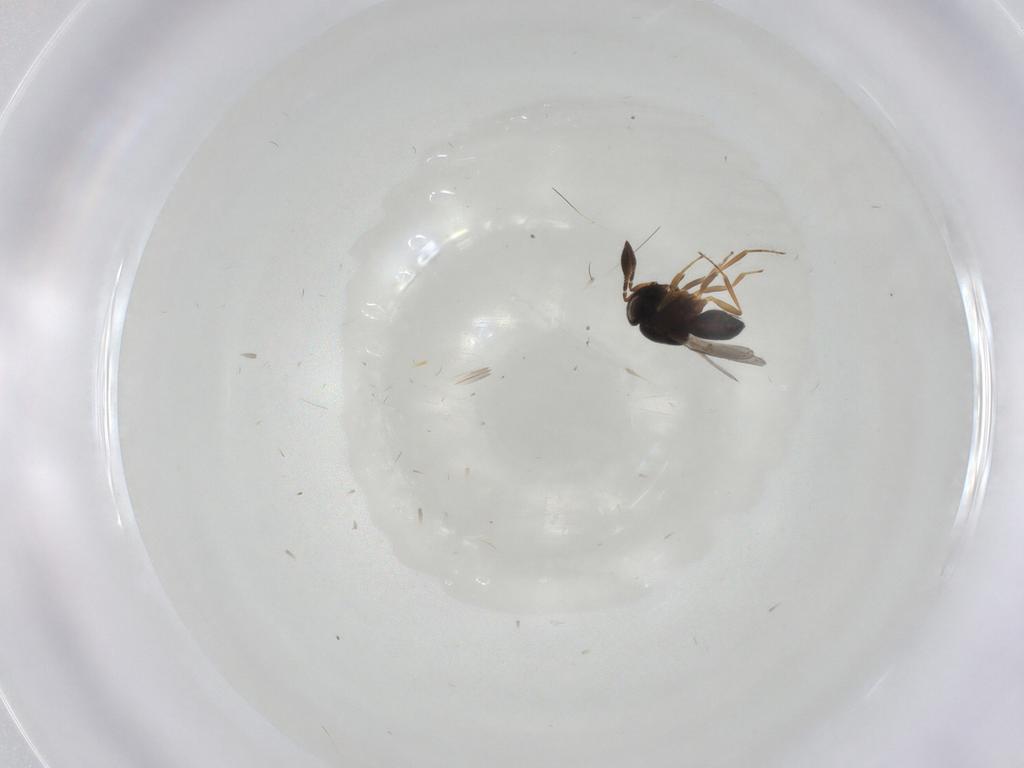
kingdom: Animalia
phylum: Arthropoda
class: Insecta
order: Hymenoptera
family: Scelionidae
